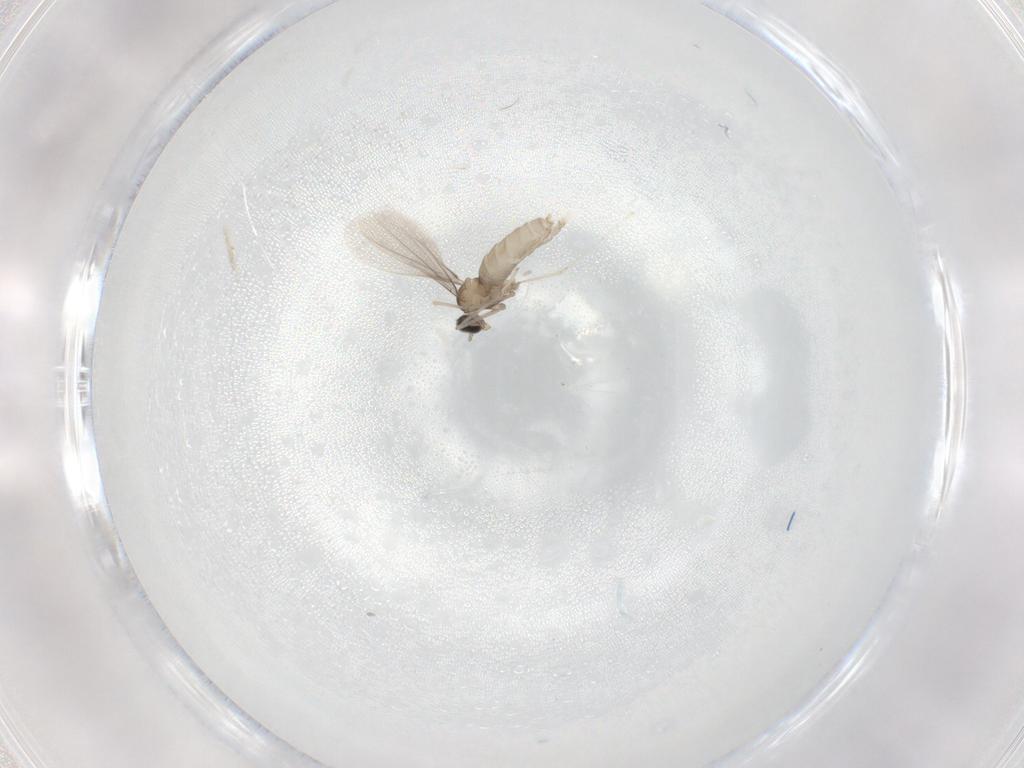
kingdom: Animalia
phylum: Arthropoda
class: Insecta
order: Diptera
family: Cecidomyiidae
